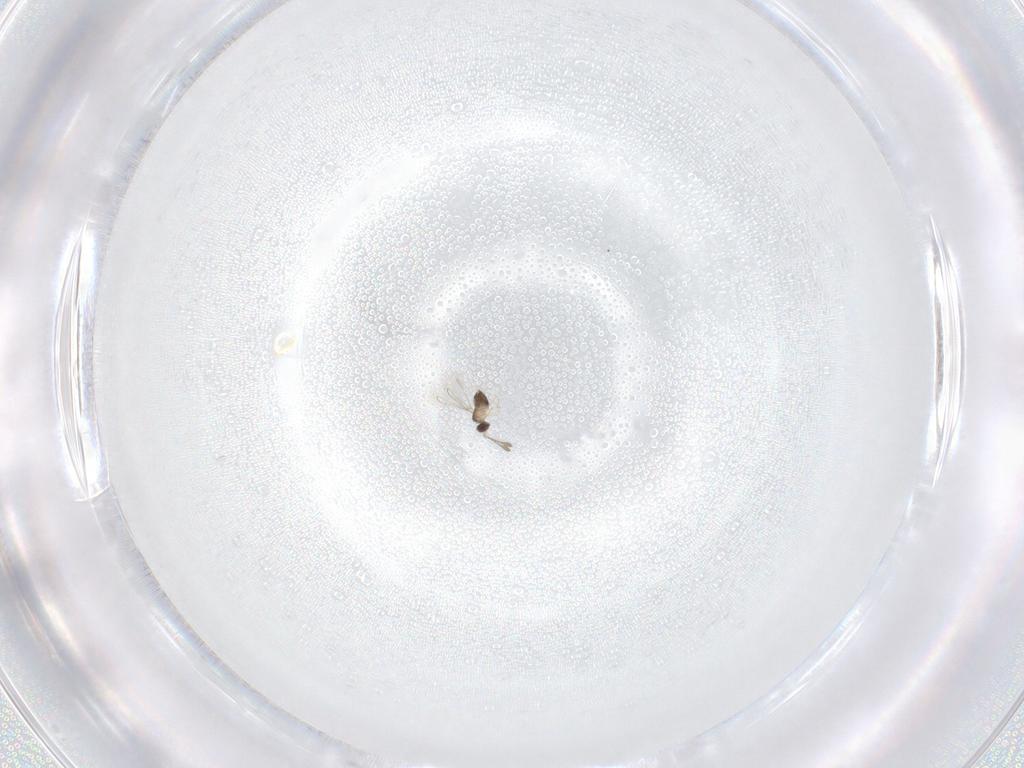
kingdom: Animalia
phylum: Arthropoda
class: Insecta
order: Hymenoptera
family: Mymaridae
